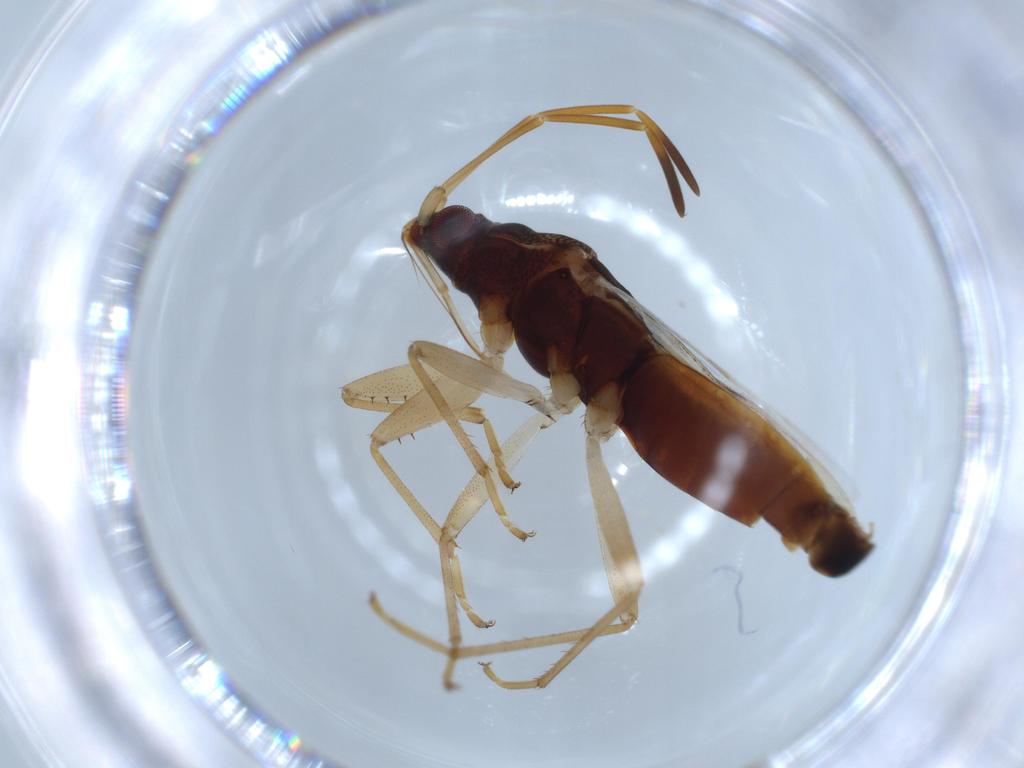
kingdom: Animalia
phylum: Arthropoda
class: Insecta
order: Hemiptera
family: Rhyparochromidae
